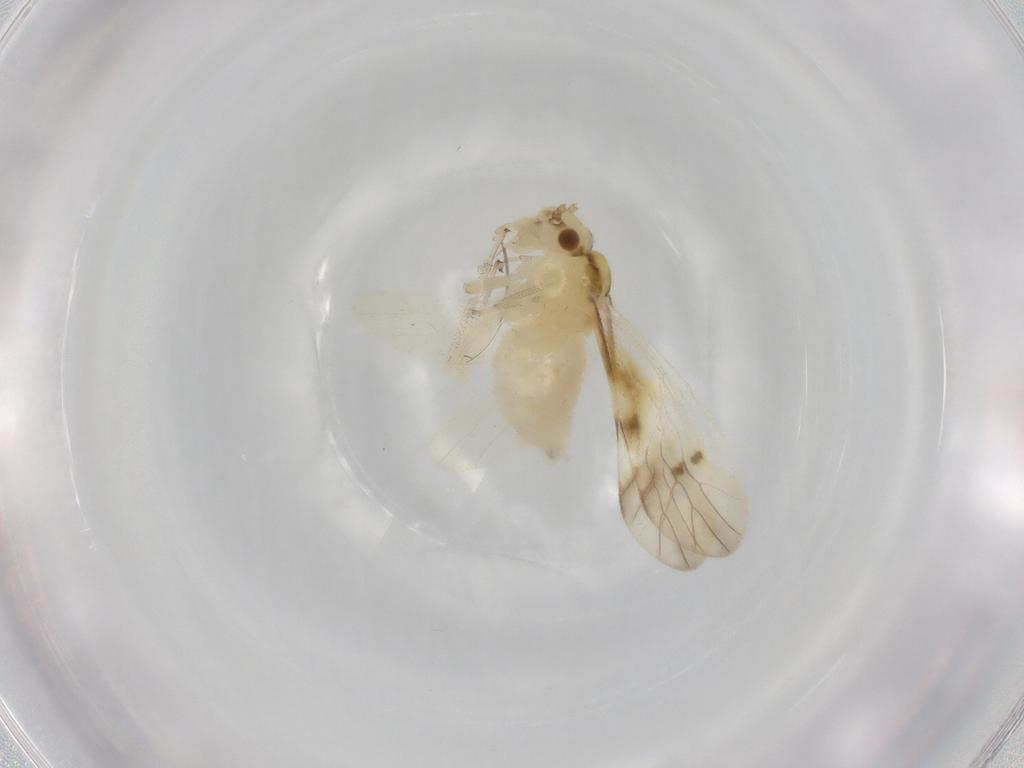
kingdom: Animalia
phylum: Arthropoda
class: Insecta
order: Psocodea
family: Caeciliusidae
